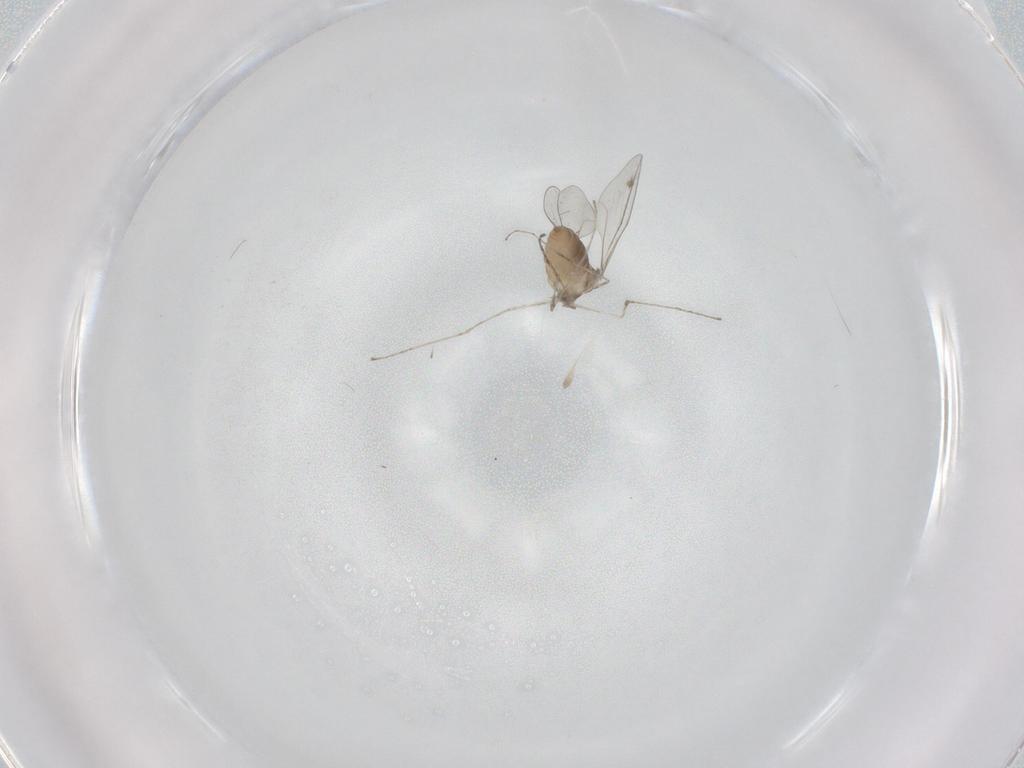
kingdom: Animalia
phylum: Arthropoda
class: Insecta
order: Diptera
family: Cecidomyiidae
